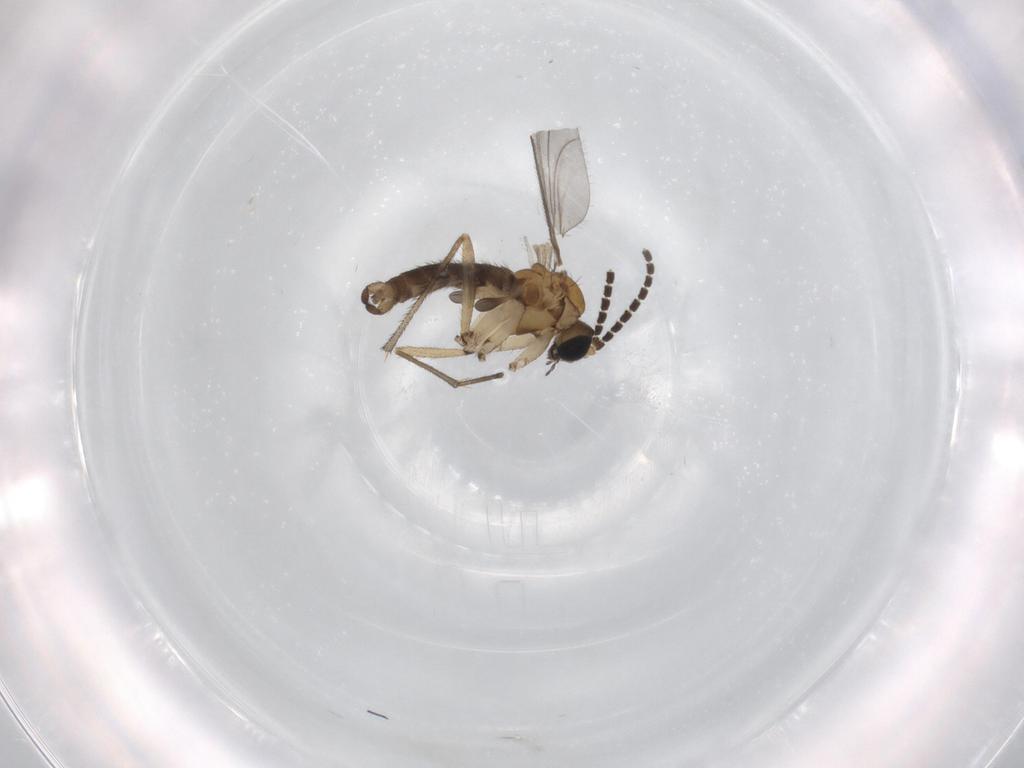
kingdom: Animalia
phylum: Arthropoda
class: Insecta
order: Diptera
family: Sciaridae
